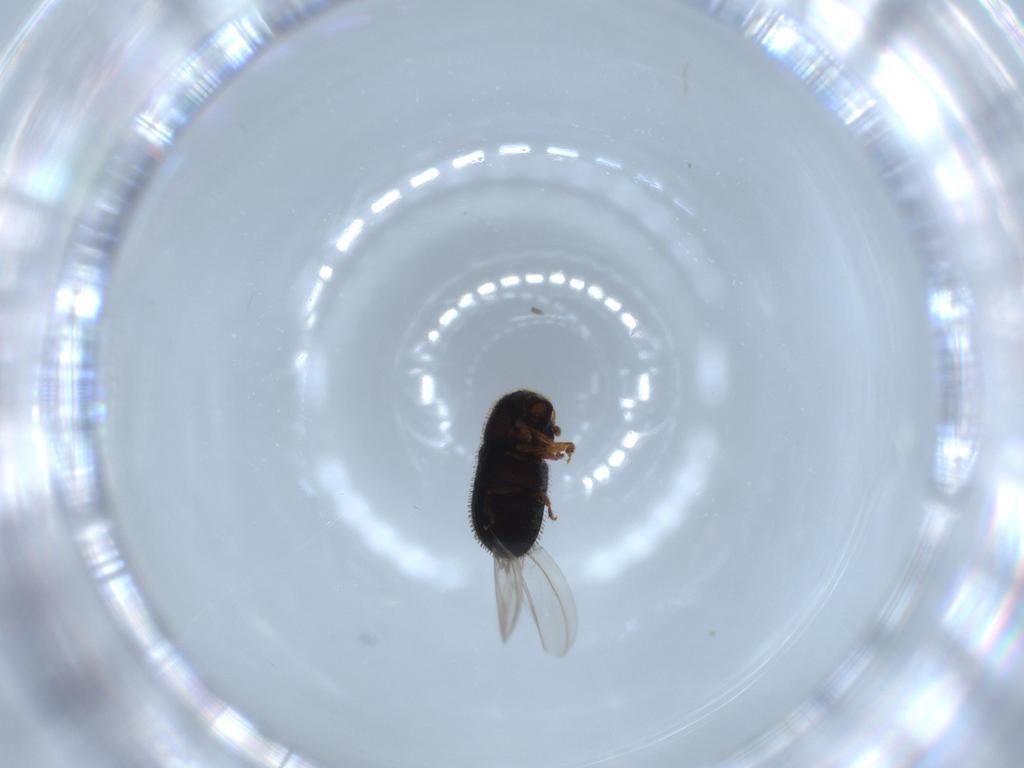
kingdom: Animalia
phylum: Arthropoda
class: Insecta
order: Coleoptera
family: Curculionidae
